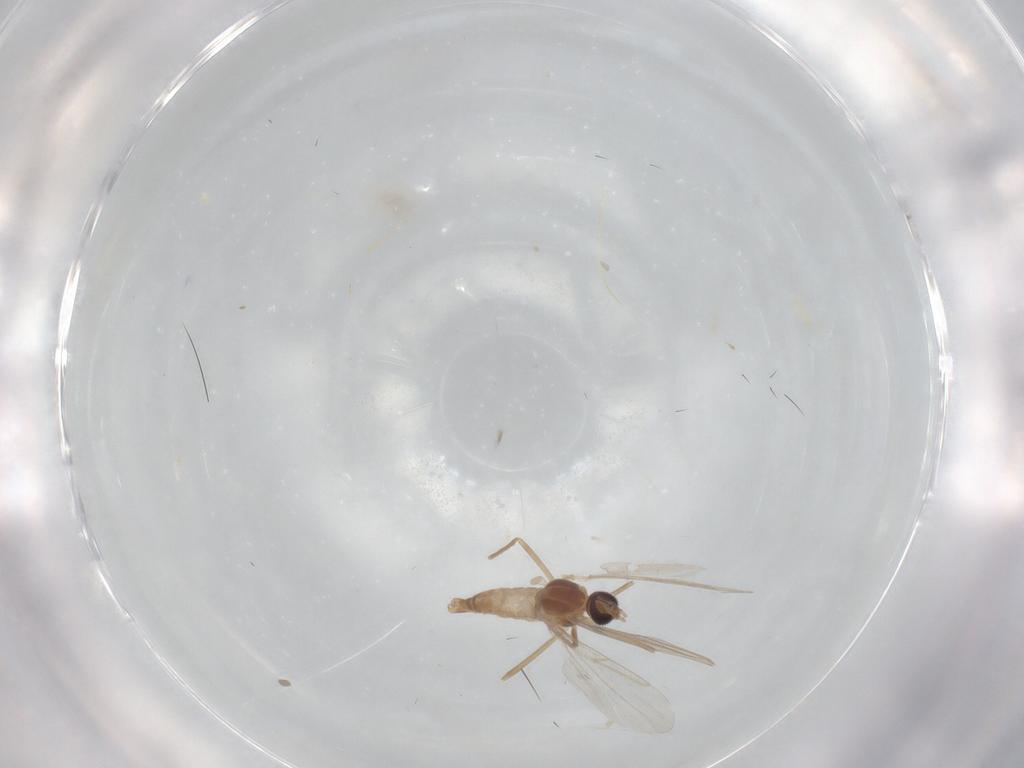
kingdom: Animalia
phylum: Arthropoda
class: Insecta
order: Diptera
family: Cecidomyiidae
